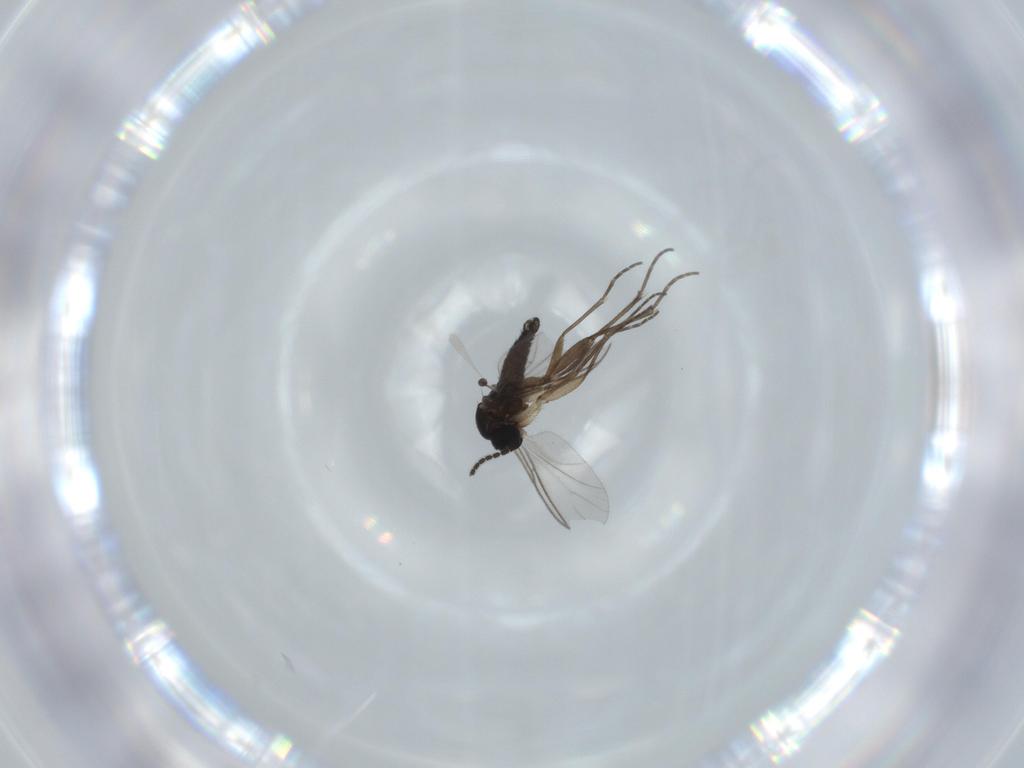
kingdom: Animalia
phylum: Arthropoda
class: Insecta
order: Diptera
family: Sciaridae
